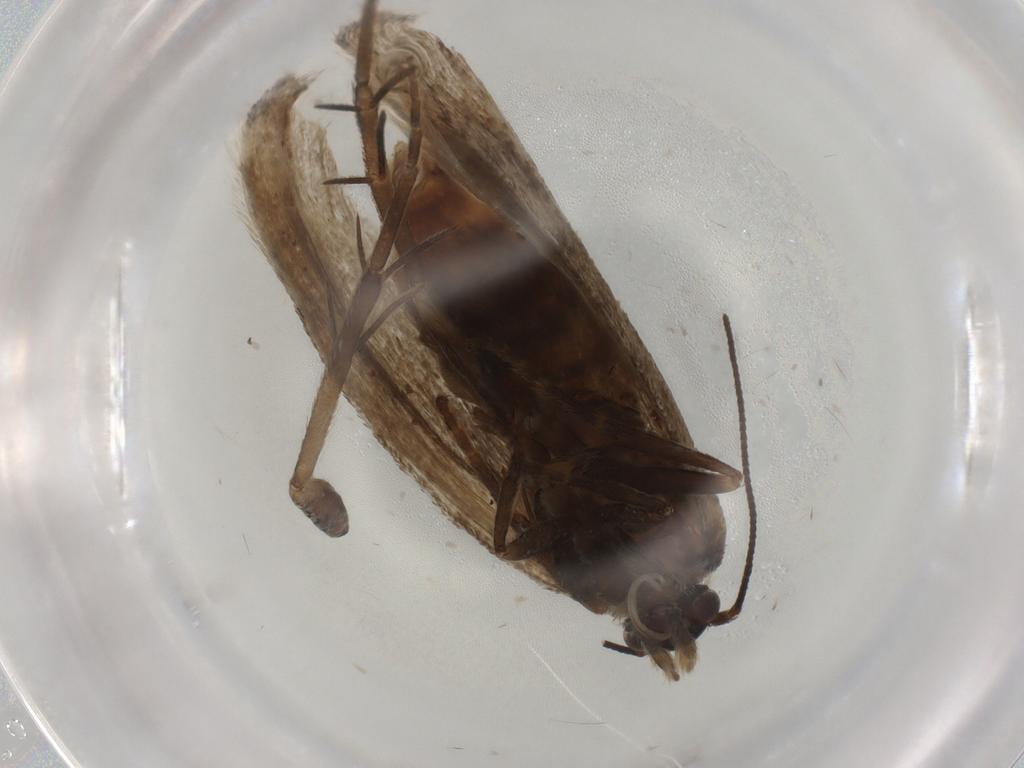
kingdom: Animalia
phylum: Arthropoda
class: Insecta
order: Lepidoptera
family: Tortricidae
